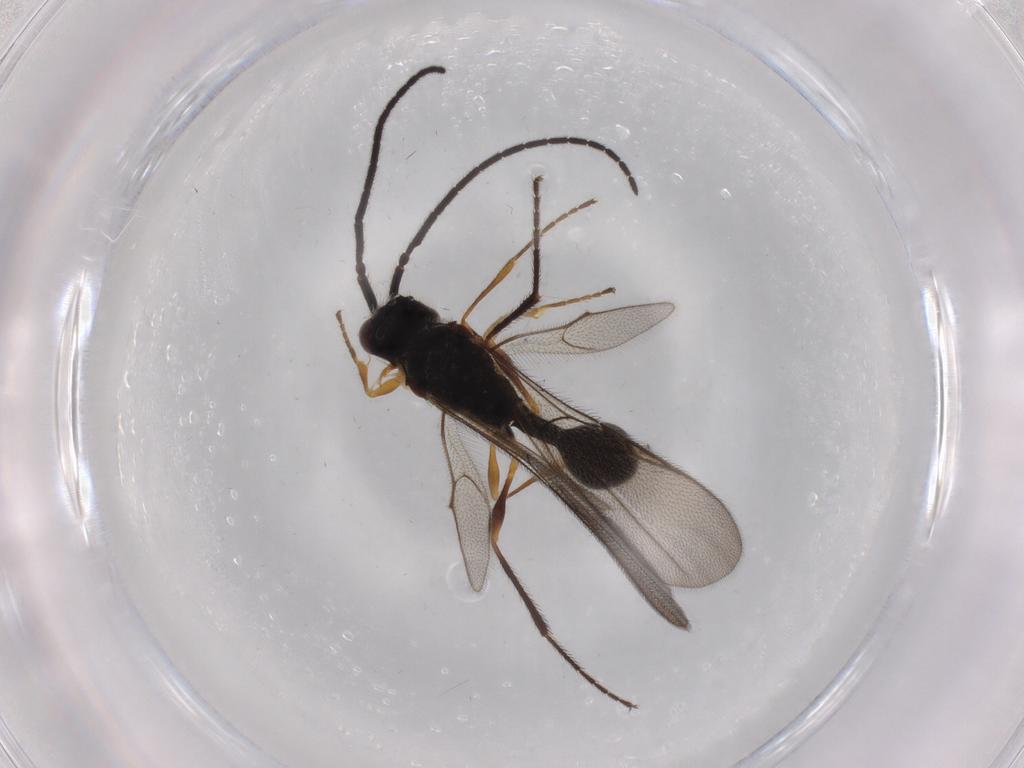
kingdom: Animalia
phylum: Arthropoda
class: Insecta
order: Hymenoptera
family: Diapriidae
